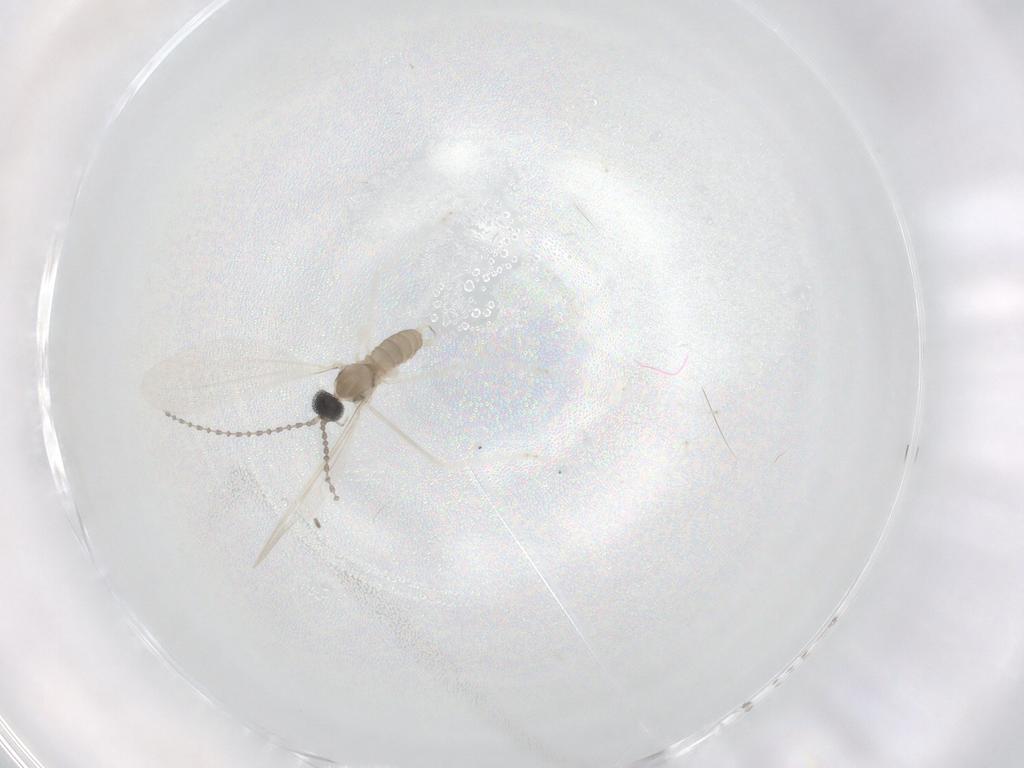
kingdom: Animalia
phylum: Arthropoda
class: Insecta
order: Diptera
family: Cecidomyiidae
